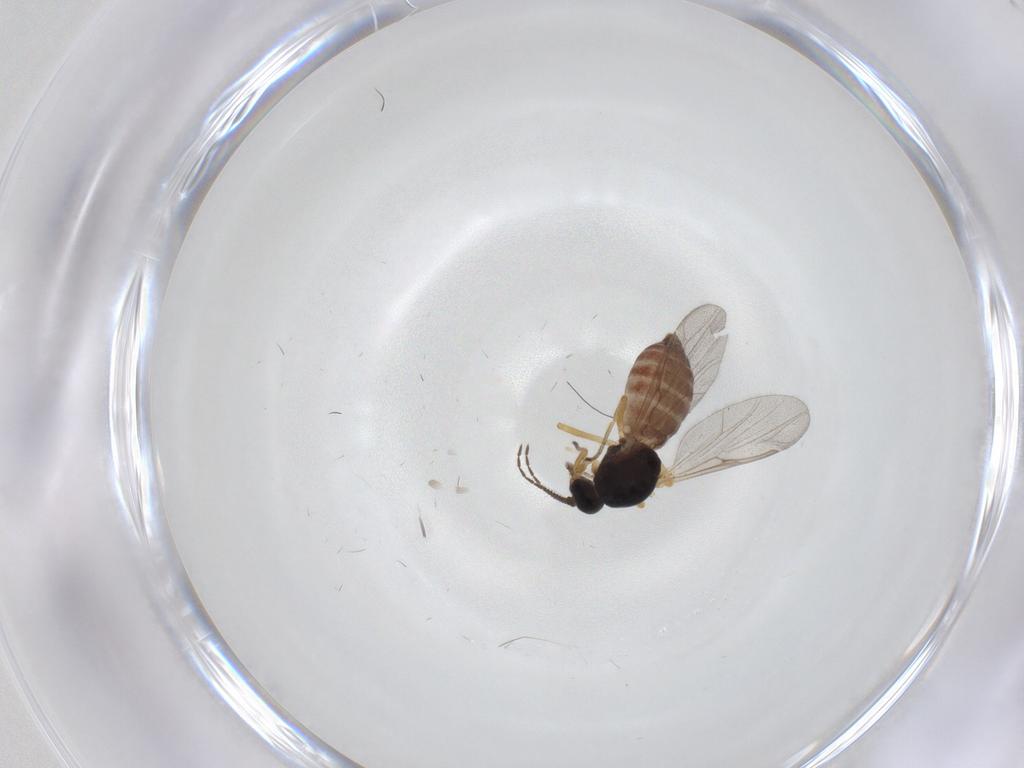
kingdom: Animalia
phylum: Arthropoda
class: Insecta
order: Diptera
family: Ceratopogonidae
